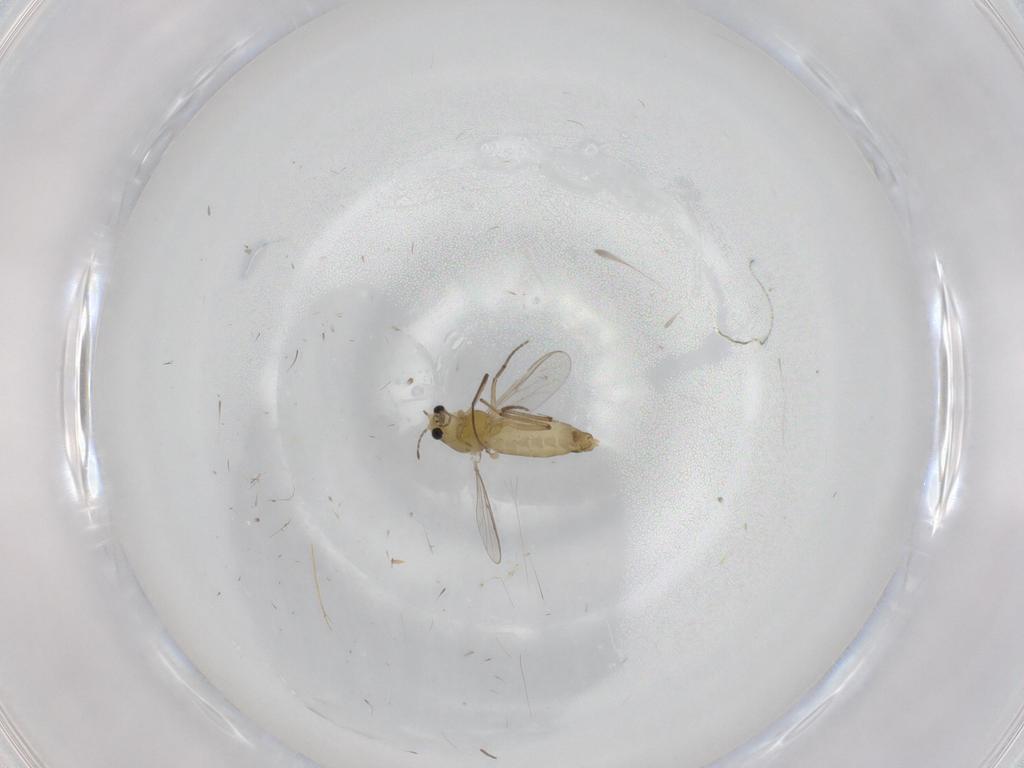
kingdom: Animalia
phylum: Arthropoda
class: Insecta
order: Diptera
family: Chironomidae
